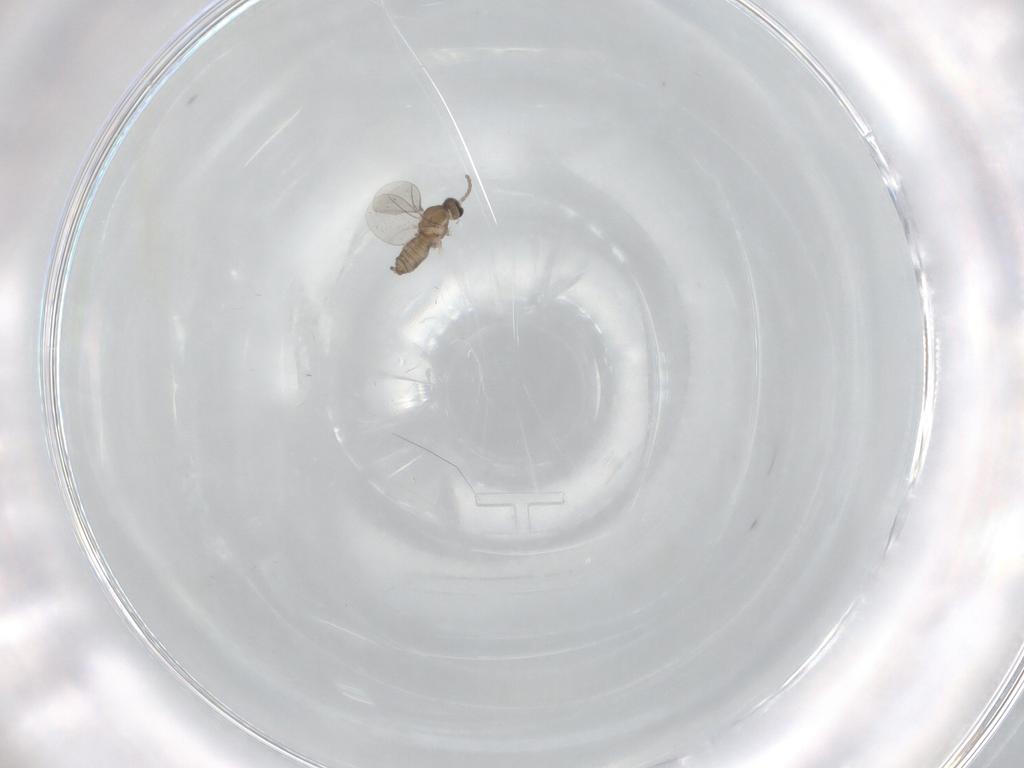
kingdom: Animalia
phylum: Arthropoda
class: Insecta
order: Diptera
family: Cecidomyiidae
